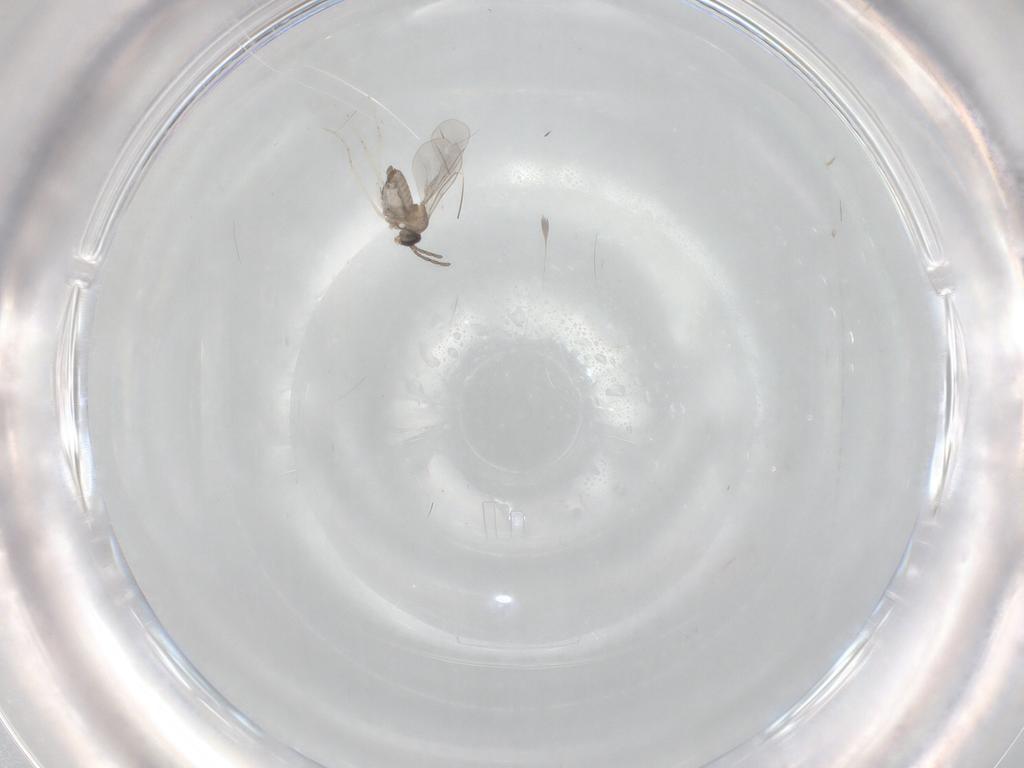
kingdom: Animalia
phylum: Arthropoda
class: Insecta
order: Diptera
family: Cecidomyiidae
